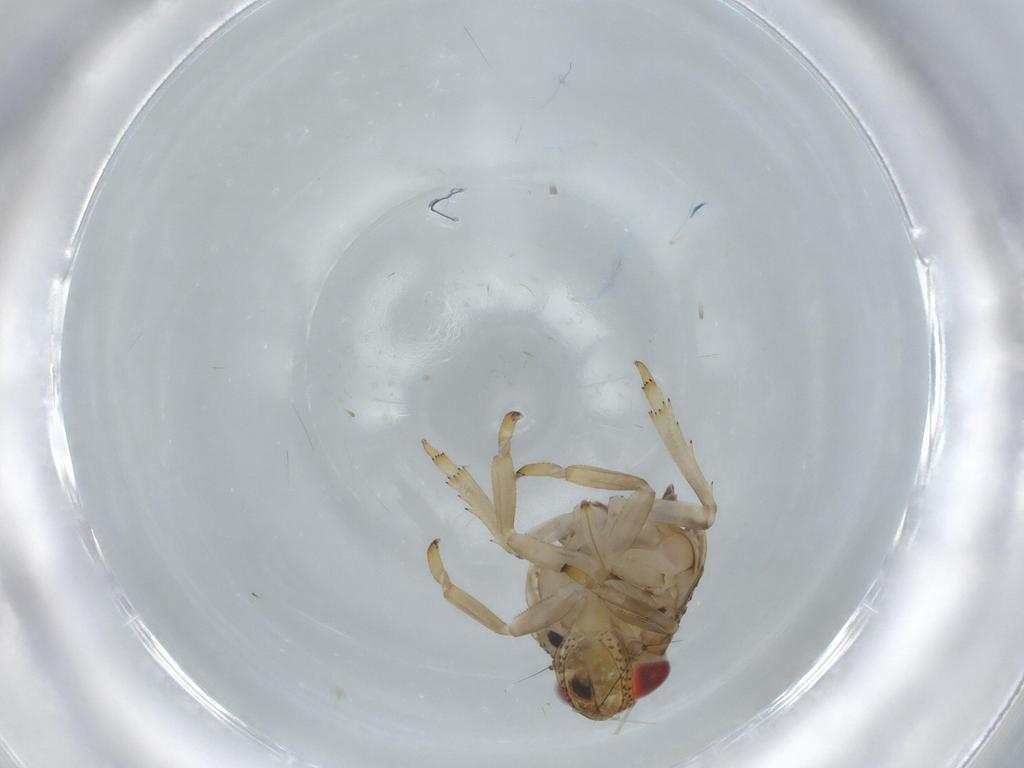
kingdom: Animalia
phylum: Arthropoda
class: Insecta
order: Hemiptera
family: Issidae
